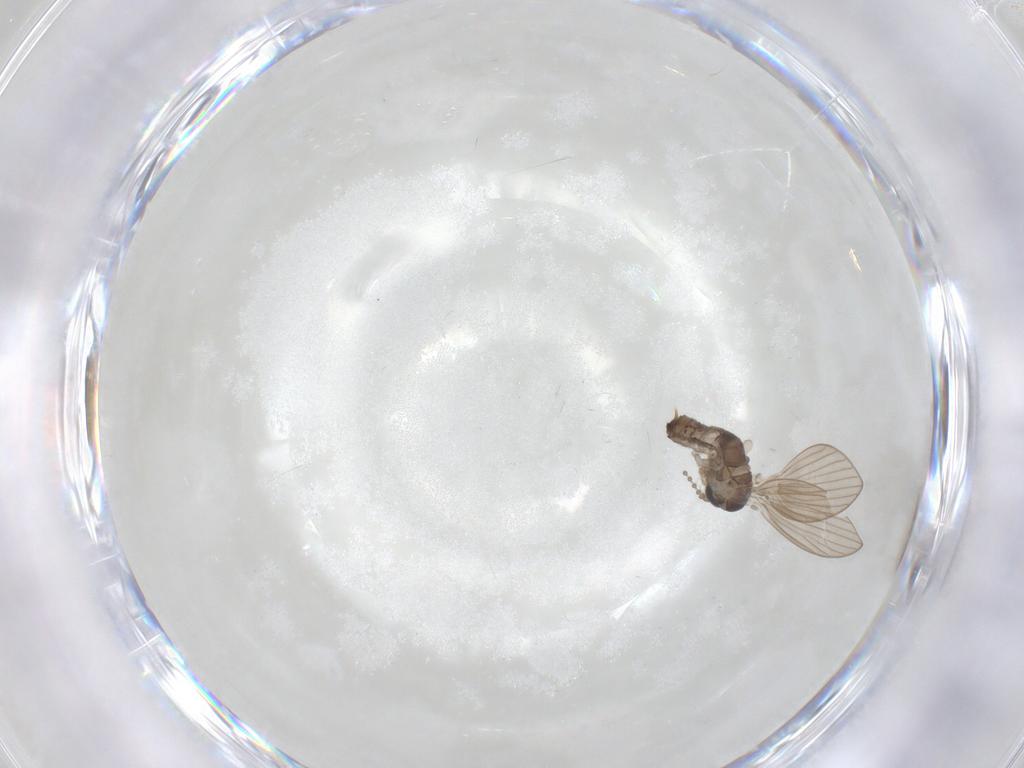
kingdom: Animalia
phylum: Arthropoda
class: Insecta
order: Diptera
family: Psychodidae
